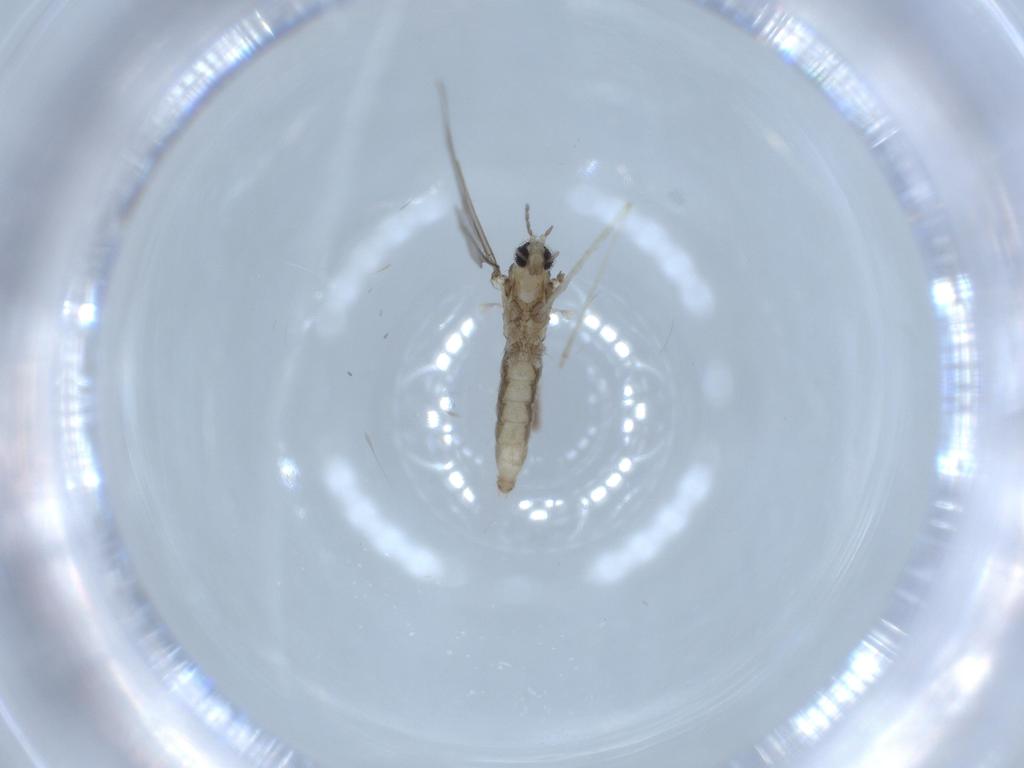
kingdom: Animalia
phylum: Arthropoda
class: Insecta
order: Diptera
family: Cecidomyiidae
